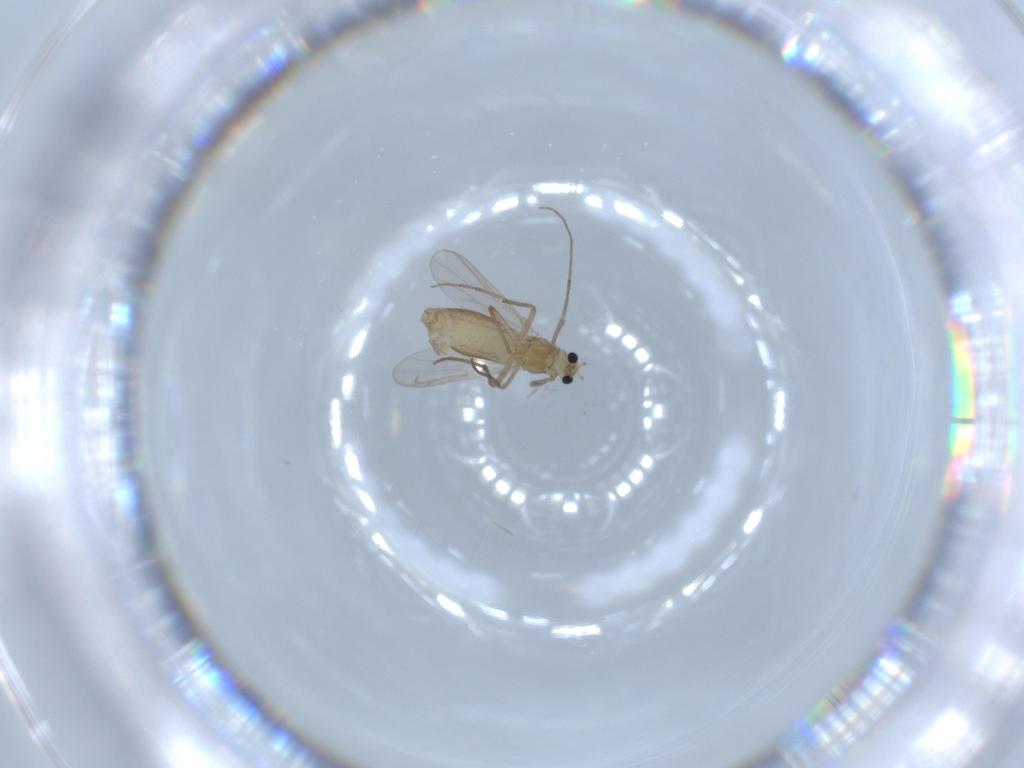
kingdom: Animalia
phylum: Arthropoda
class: Insecta
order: Diptera
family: Chironomidae
